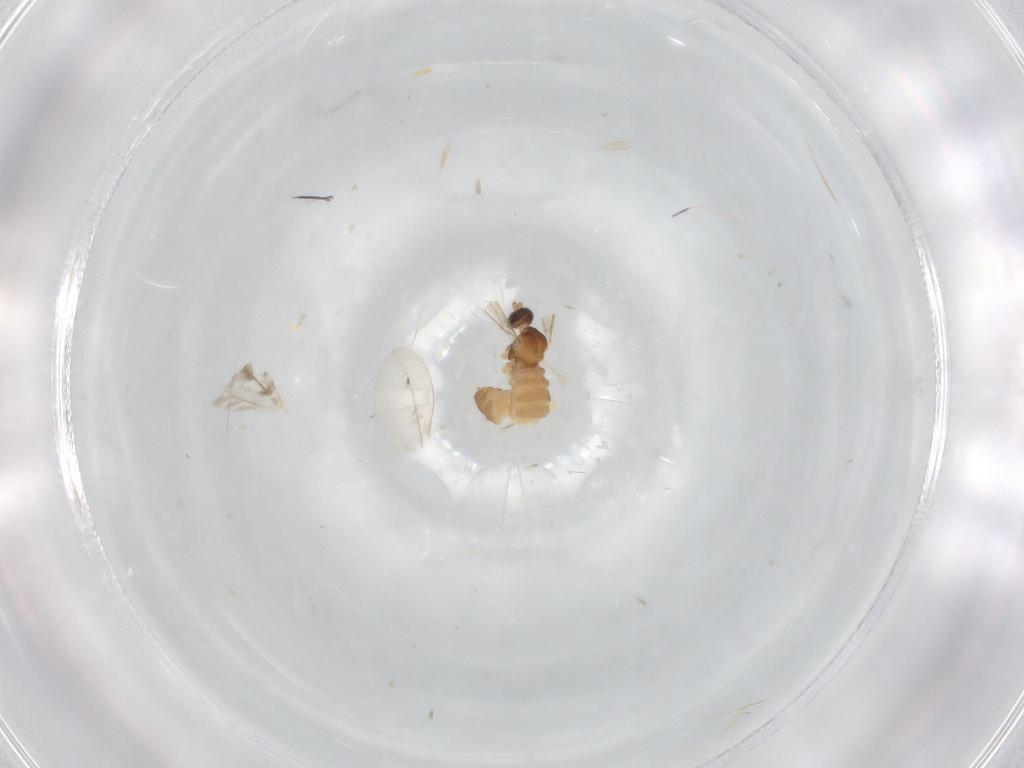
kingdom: Animalia
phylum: Arthropoda
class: Insecta
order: Diptera
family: Cecidomyiidae
